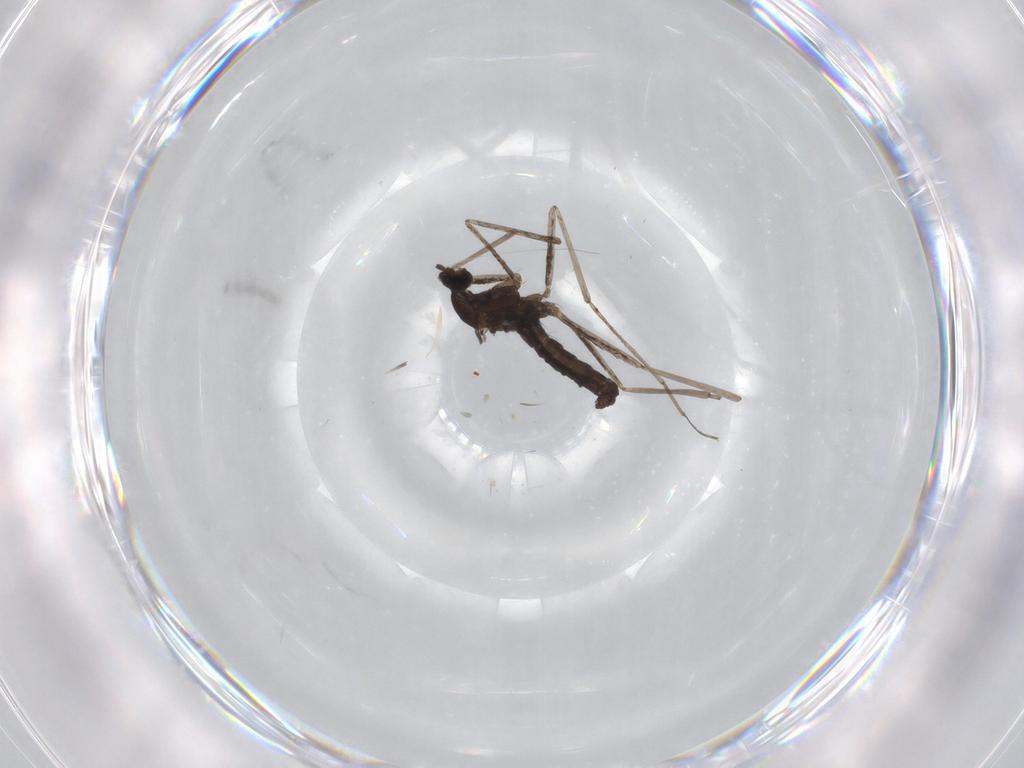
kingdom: Animalia
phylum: Arthropoda
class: Insecta
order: Diptera
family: Cecidomyiidae
